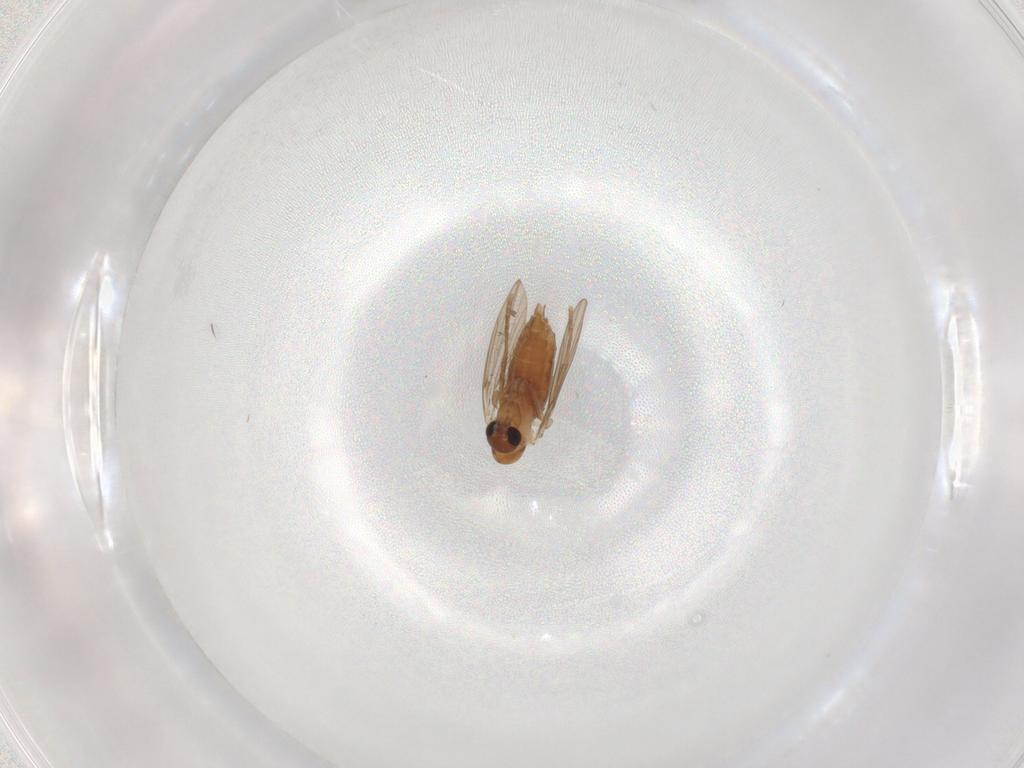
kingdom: Animalia
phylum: Arthropoda
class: Insecta
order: Diptera
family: Phoridae
